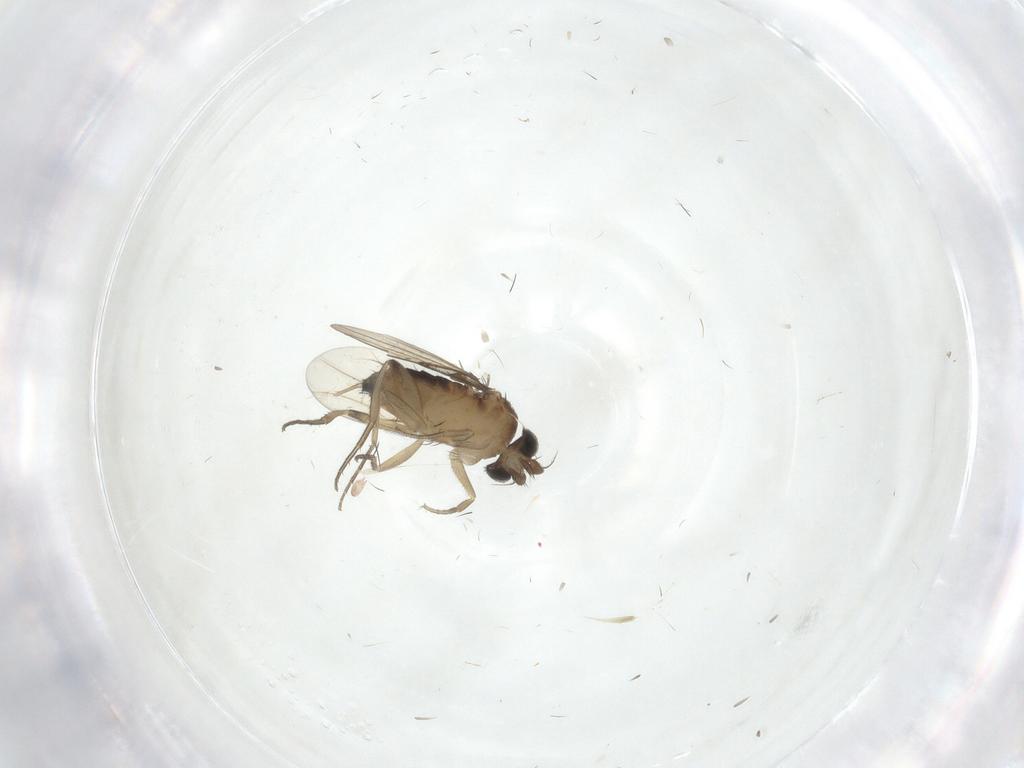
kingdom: Animalia
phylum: Arthropoda
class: Insecta
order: Diptera
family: Phoridae
